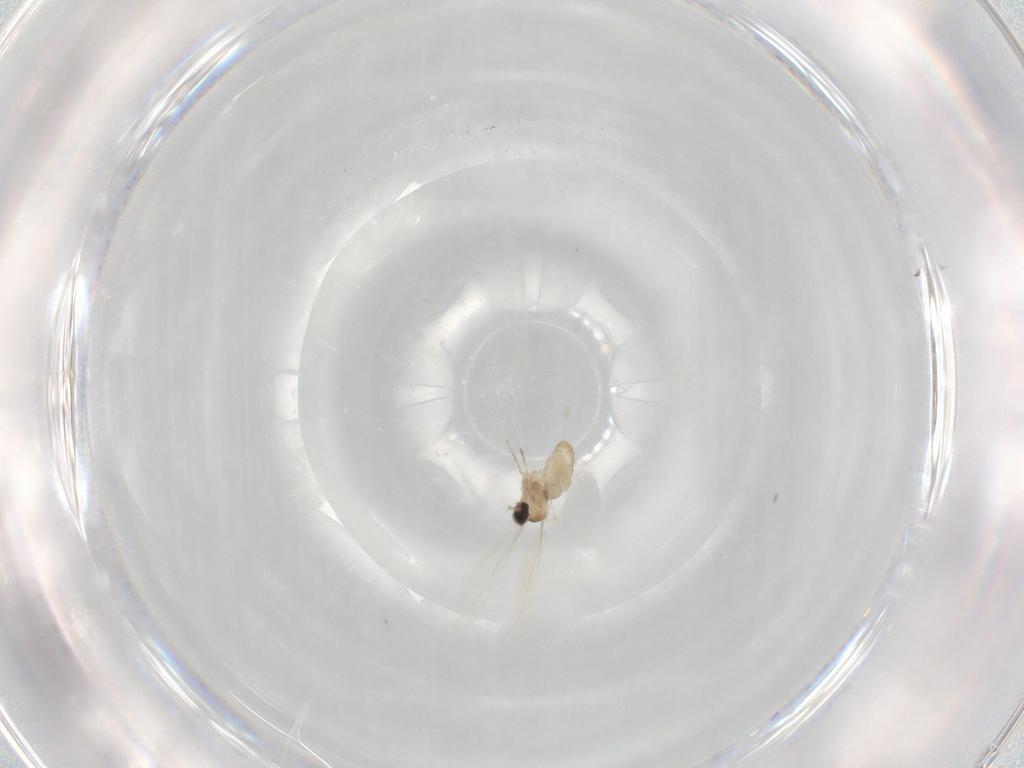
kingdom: Animalia
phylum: Arthropoda
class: Insecta
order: Diptera
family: Cecidomyiidae
